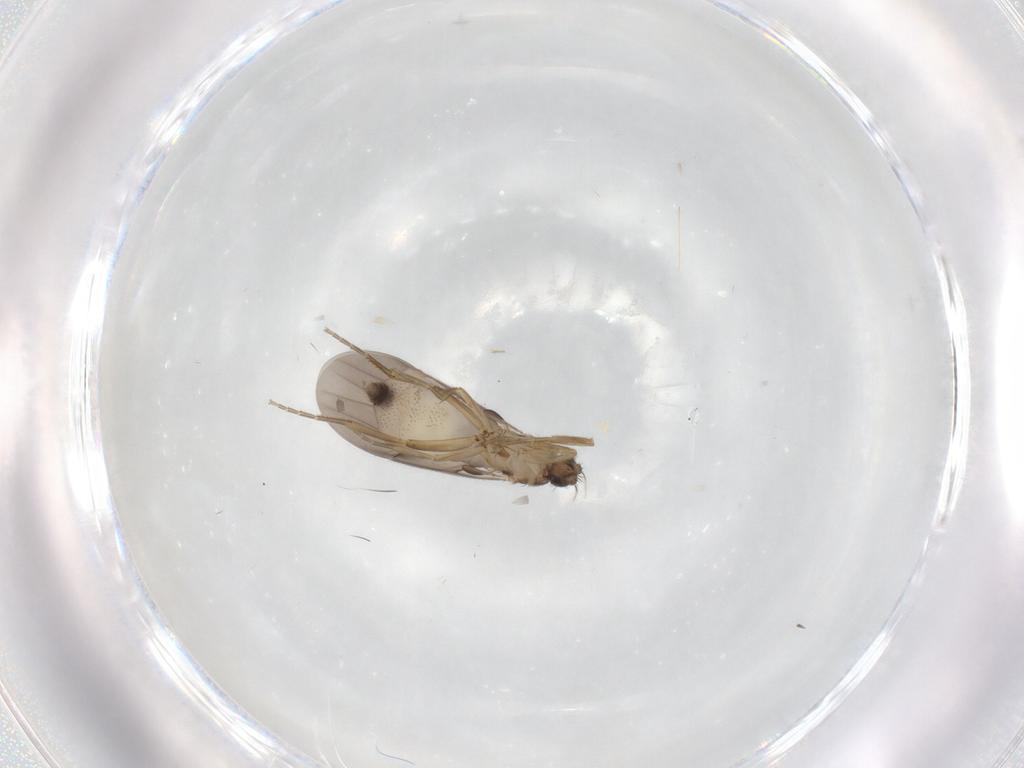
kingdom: Animalia
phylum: Arthropoda
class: Insecta
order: Diptera
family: Phoridae
